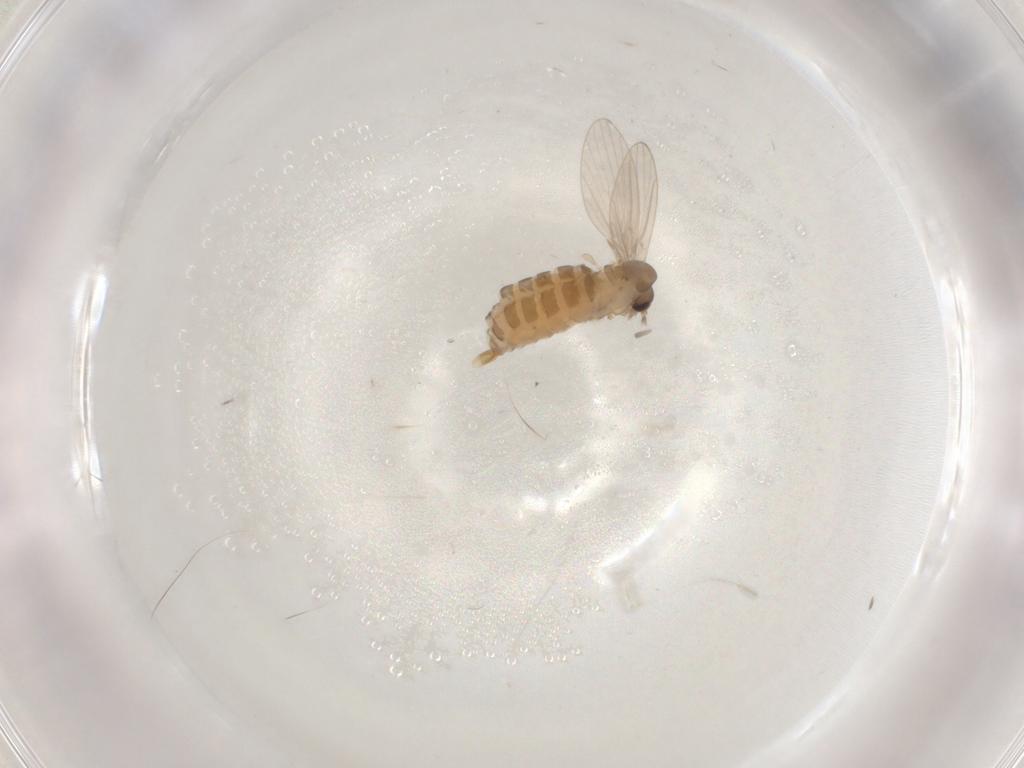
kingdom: Animalia
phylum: Arthropoda
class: Insecta
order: Diptera
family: Psychodidae
